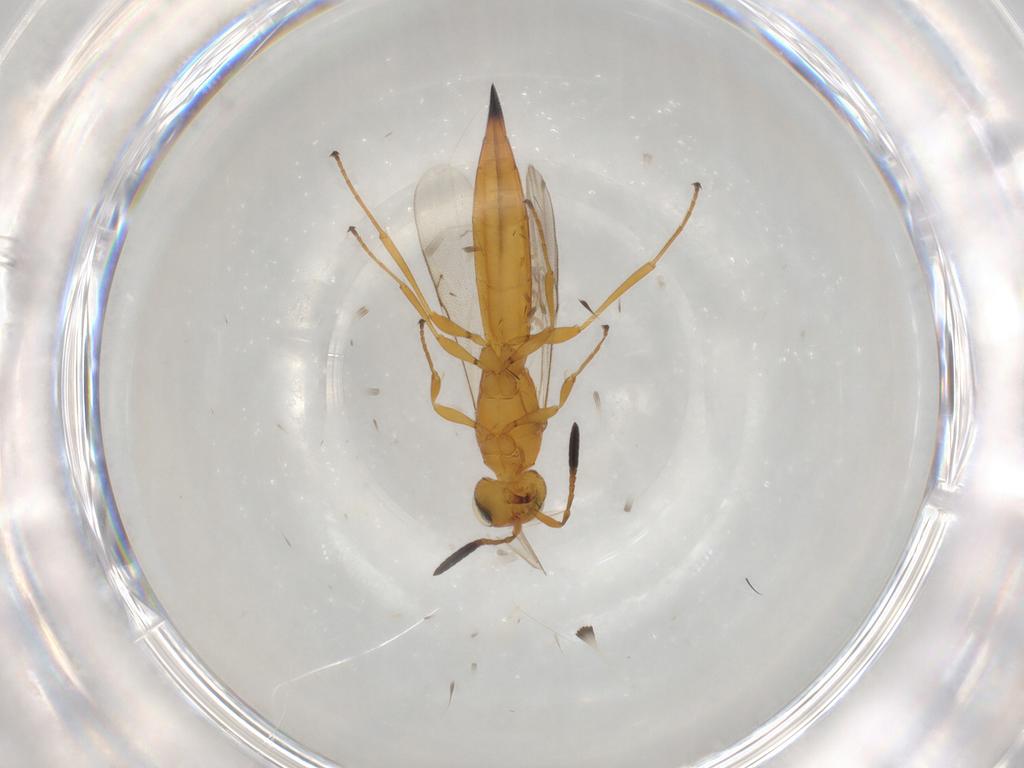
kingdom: Animalia
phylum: Arthropoda
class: Insecta
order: Hymenoptera
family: Scelionidae
